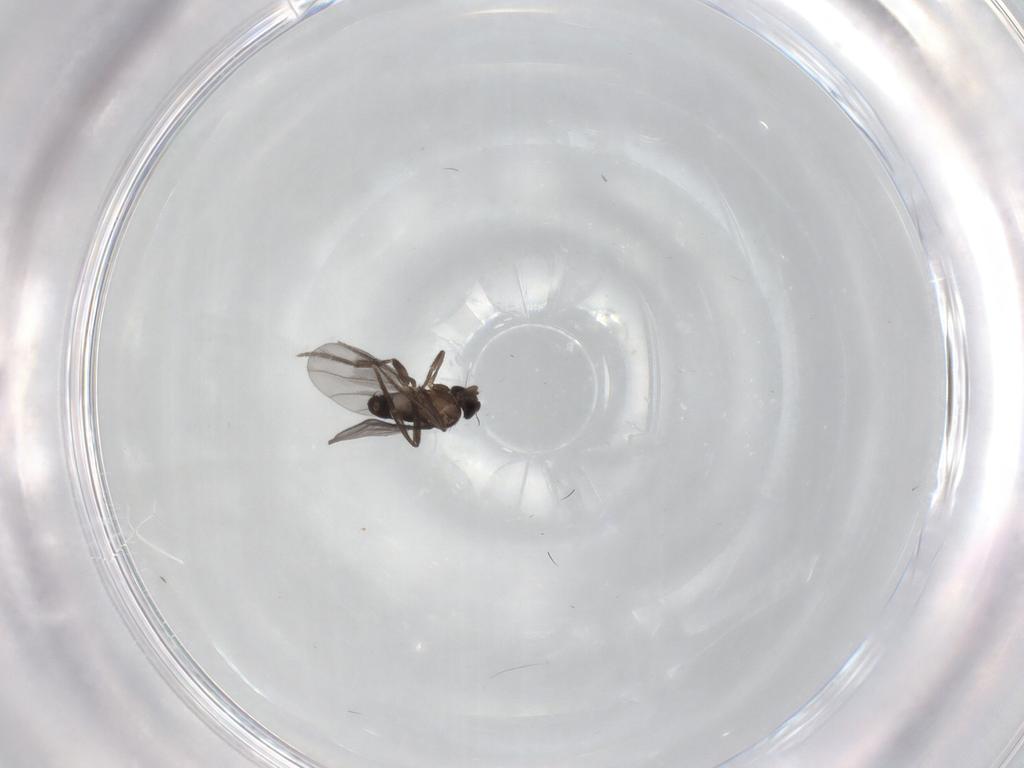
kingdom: Animalia
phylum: Arthropoda
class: Insecta
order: Diptera
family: Phoridae
